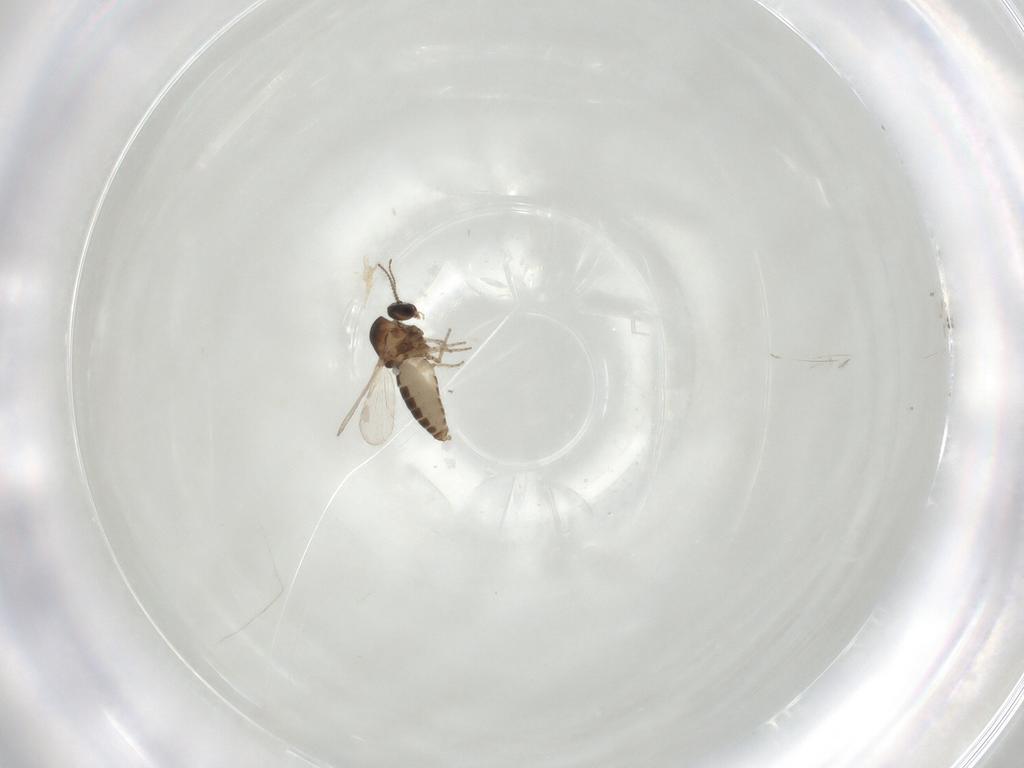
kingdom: Animalia
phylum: Arthropoda
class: Insecta
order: Diptera
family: Ceratopogonidae
